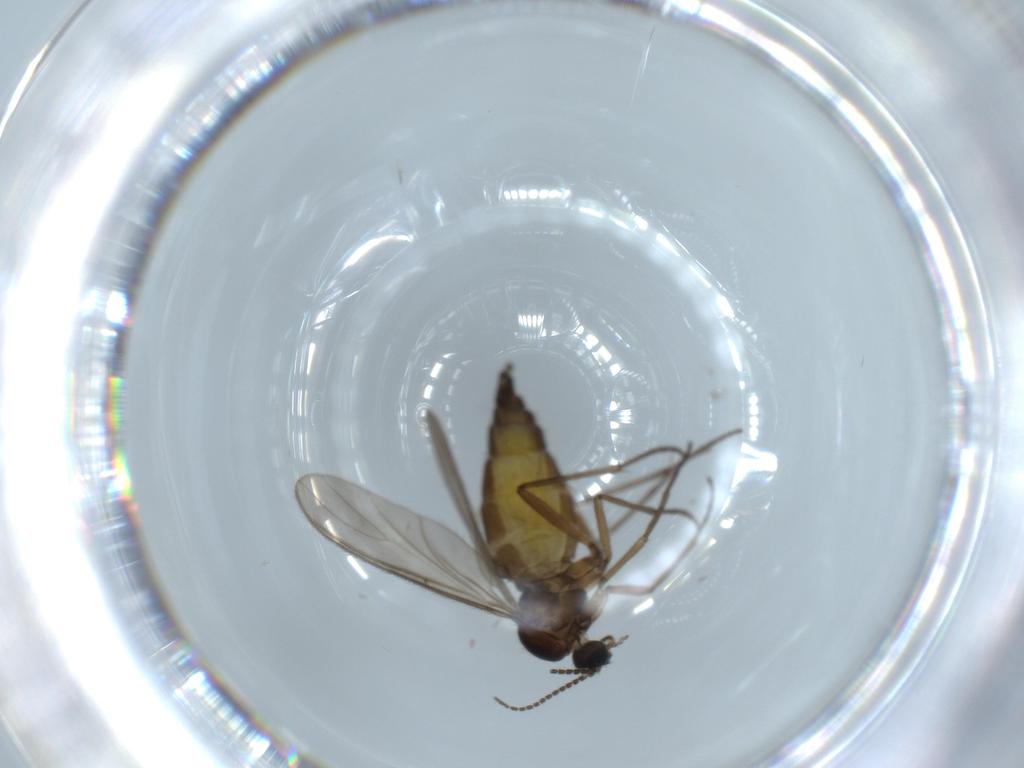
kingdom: Animalia
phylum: Arthropoda
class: Insecta
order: Diptera
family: Sciaridae
